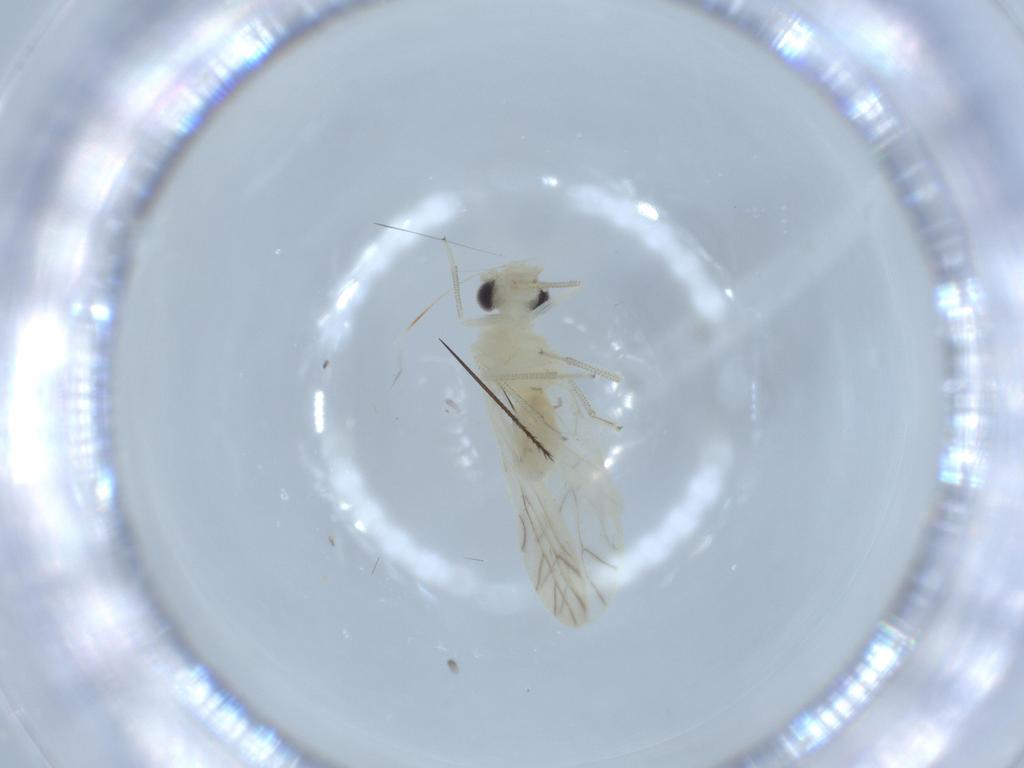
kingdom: Animalia
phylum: Arthropoda
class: Insecta
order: Psocodea
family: Caeciliusidae
